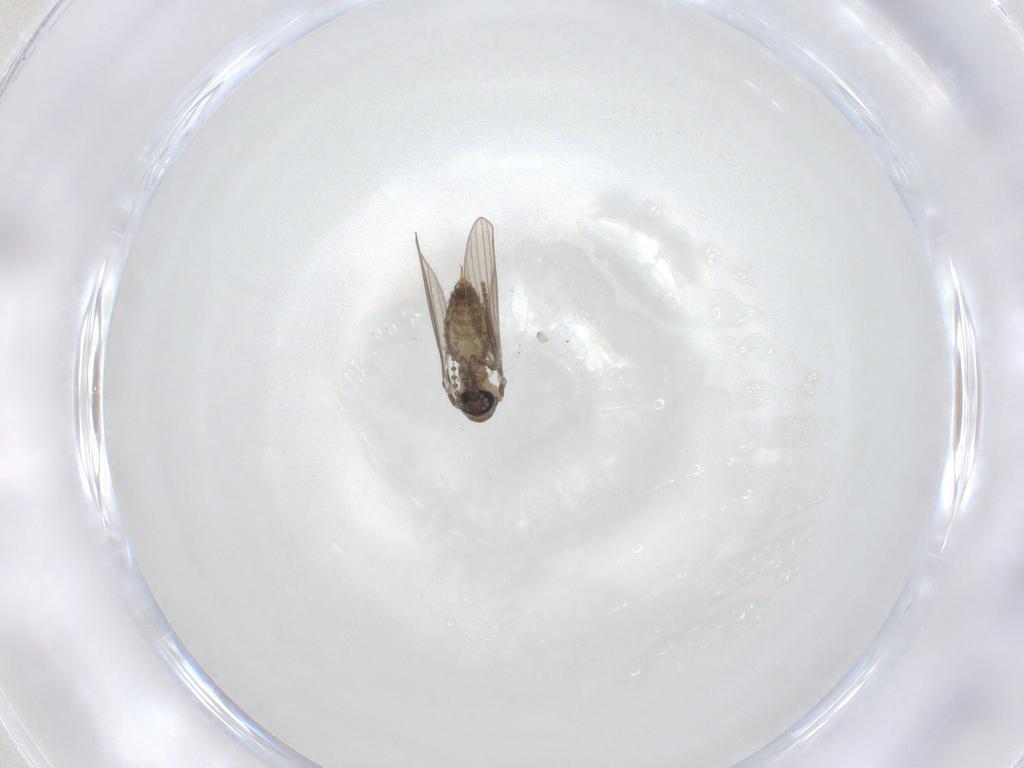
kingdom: Animalia
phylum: Arthropoda
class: Insecta
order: Diptera
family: Psychodidae
